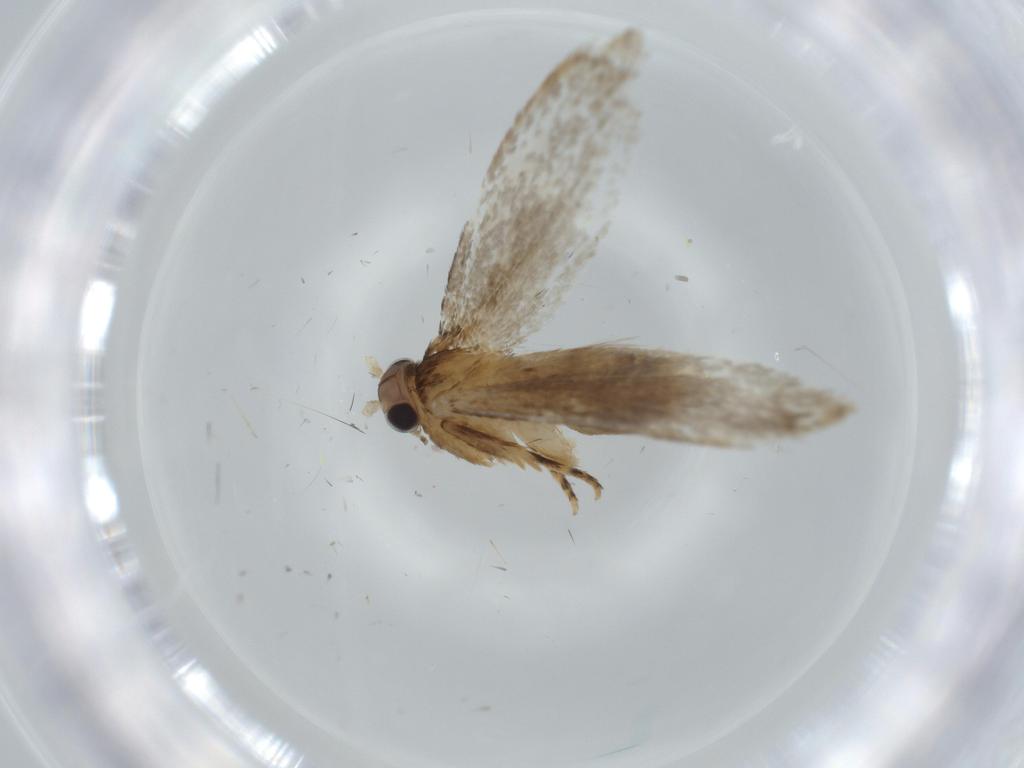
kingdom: Animalia
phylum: Arthropoda
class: Insecta
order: Lepidoptera
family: Tineidae
